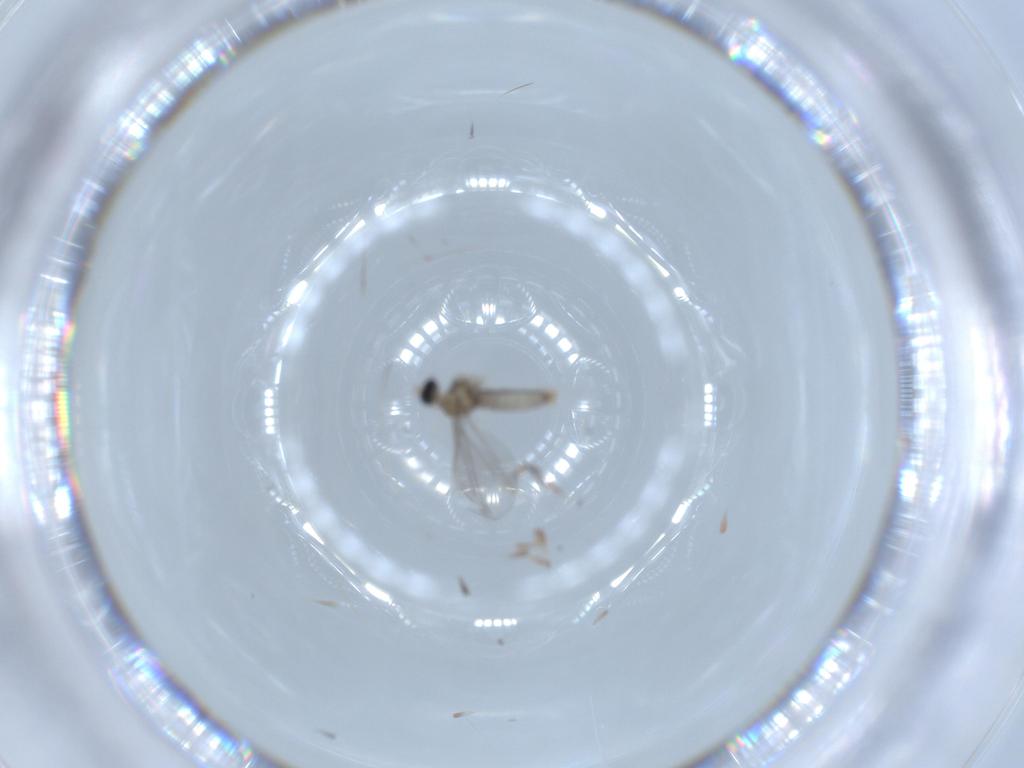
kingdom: Animalia
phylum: Arthropoda
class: Insecta
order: Diptera
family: Cecidomyiidae
